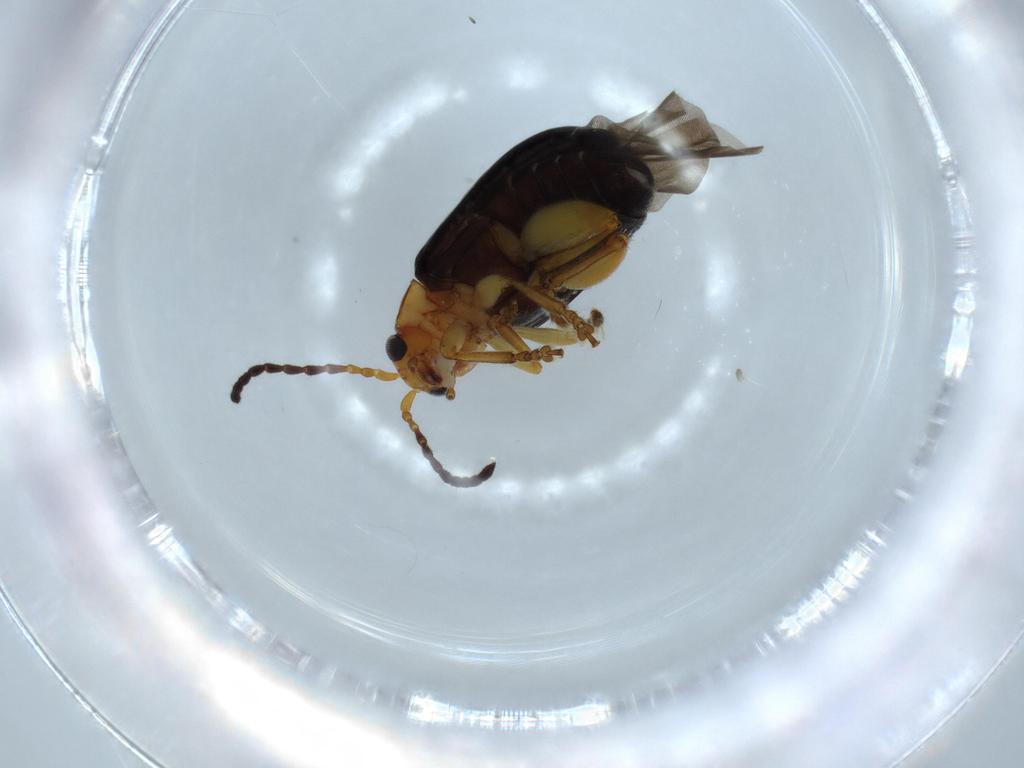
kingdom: Animalia
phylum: Arthropoda
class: Insecta
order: Coleoptera
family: Chrysomelidae
